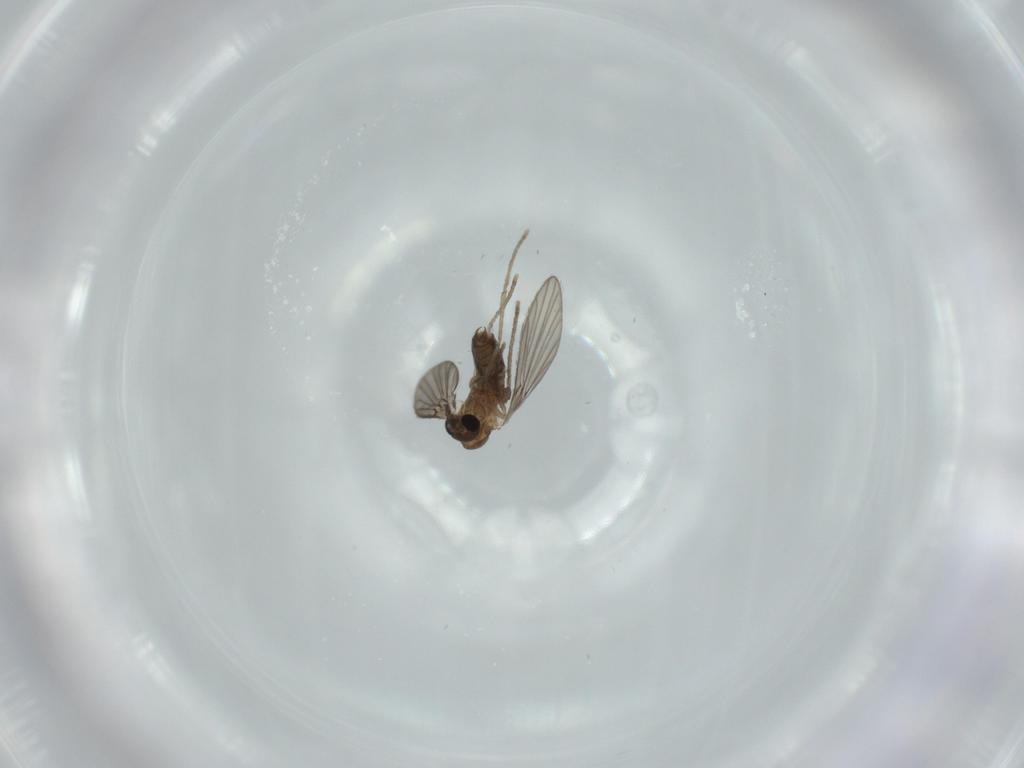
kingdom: Animalia
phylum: Arthropoda
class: Insecta
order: Diptera
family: Psychodidae
